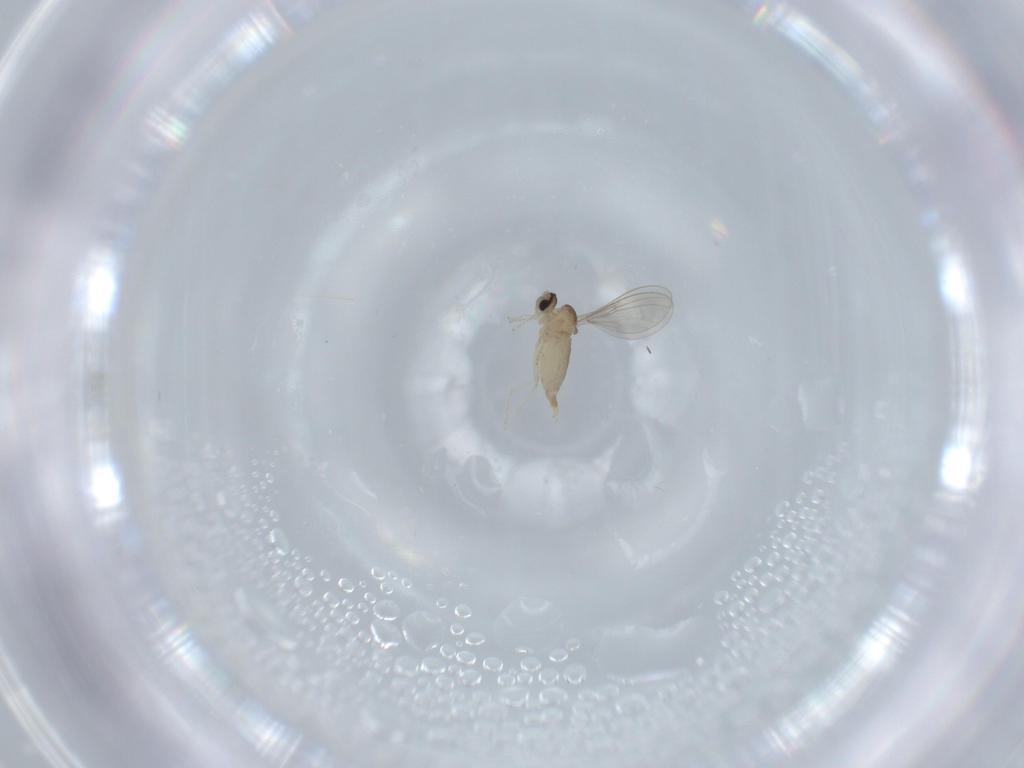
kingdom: Animalia
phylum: Arthropoda
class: Insecta
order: Diptera
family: Cecidomyiidae
